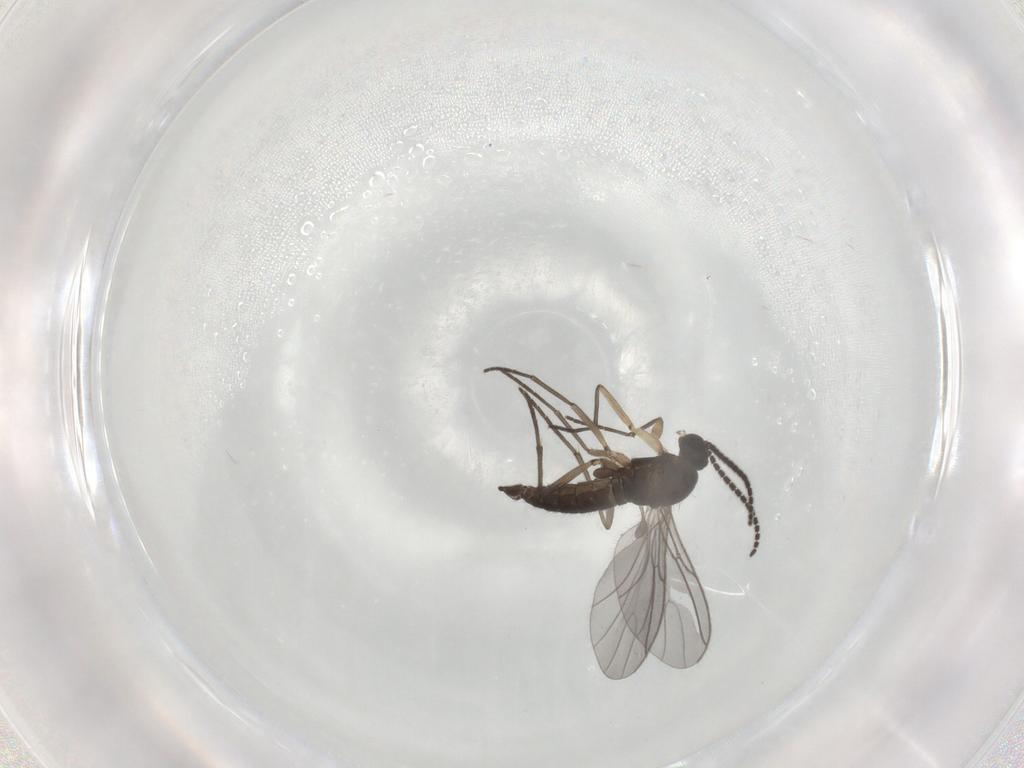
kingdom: Animalia
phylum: Arthropoda
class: Insecta
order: Diptera
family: Sciaridae
